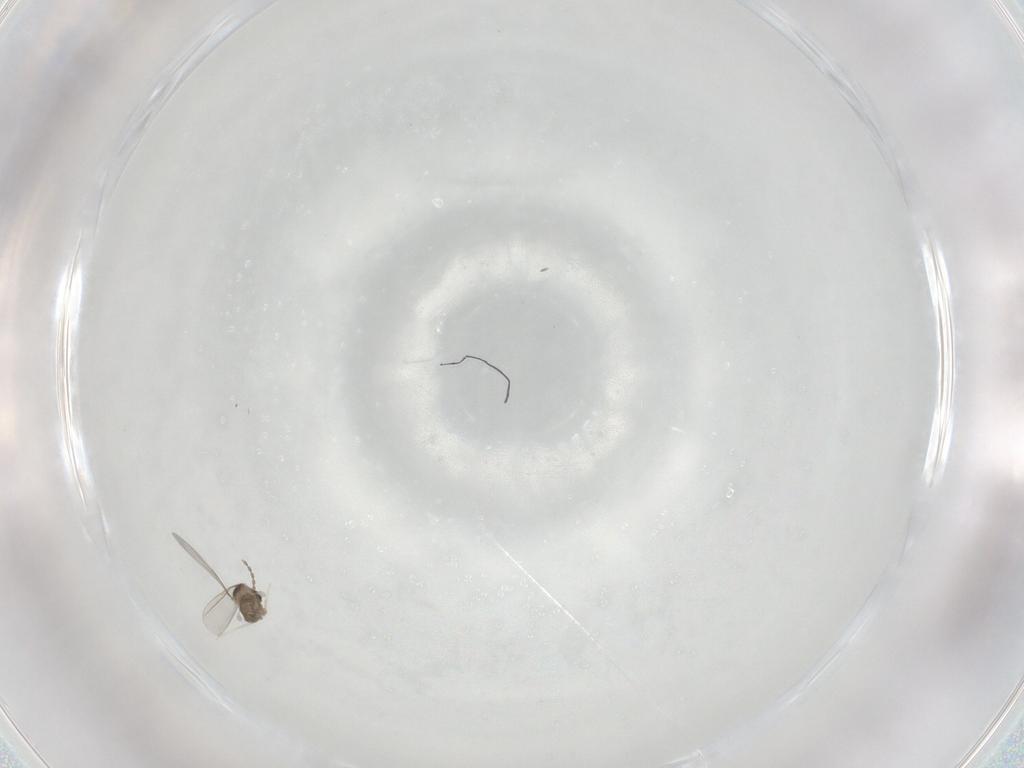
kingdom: Animalia
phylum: Arthropoda
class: Insecta
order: Diptera
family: Cecidomyiidae
